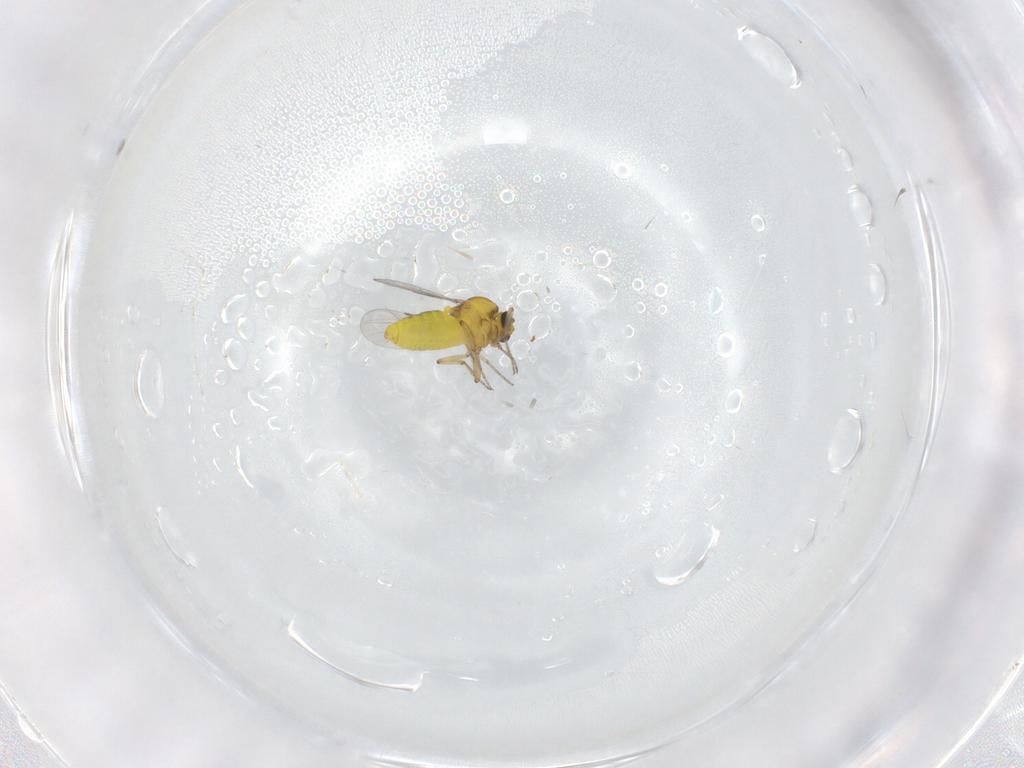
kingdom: Animalia
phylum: Arthropoda
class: Insecta
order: Diptera
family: Ceratopogonidae
